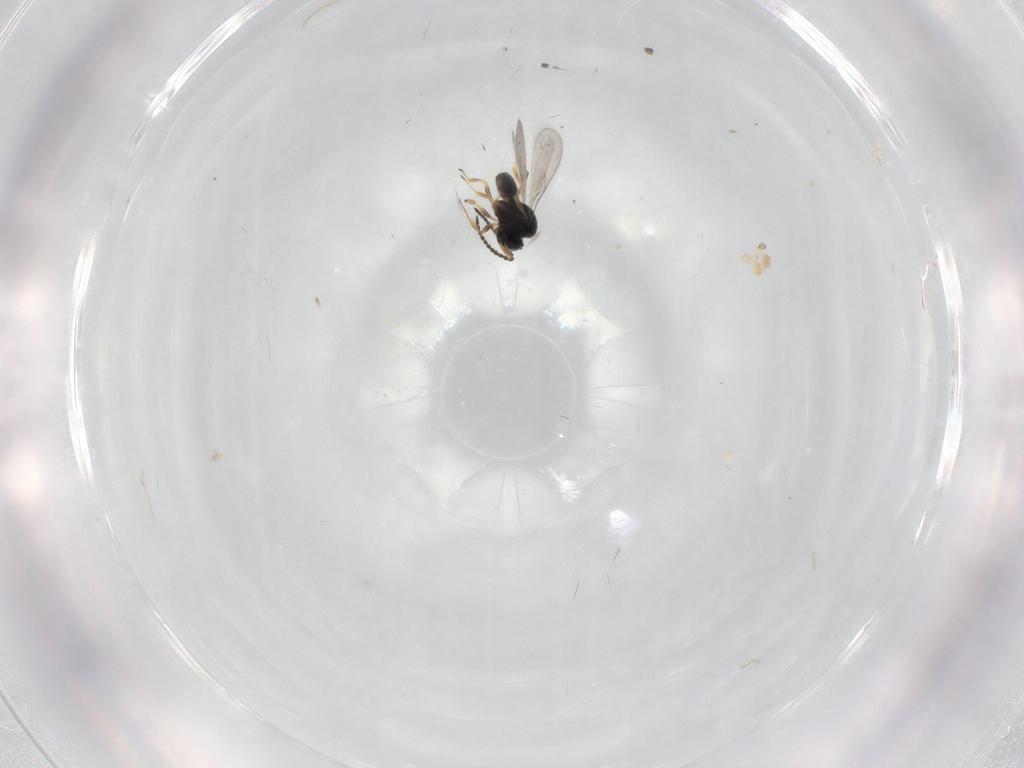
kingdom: Animalia
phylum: Arthropoda
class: Insecta
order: Hymenoptera
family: Scelionidae
